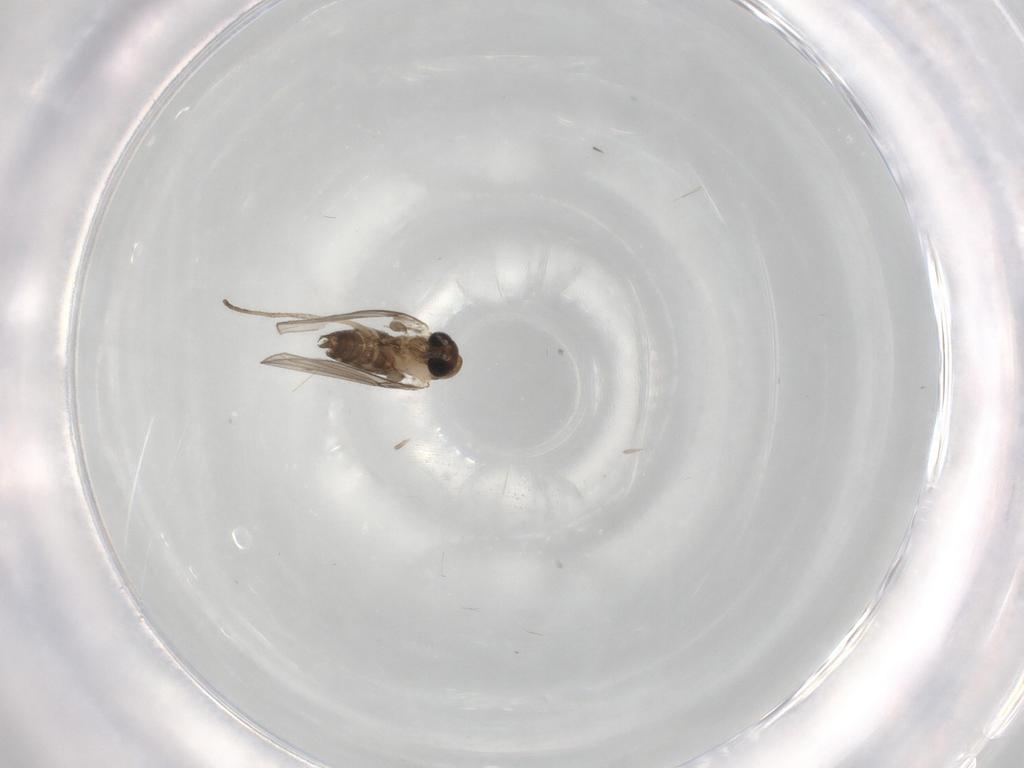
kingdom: Animalia
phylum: Arthropoda
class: Insecta
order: Diptera
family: Psychodidae
